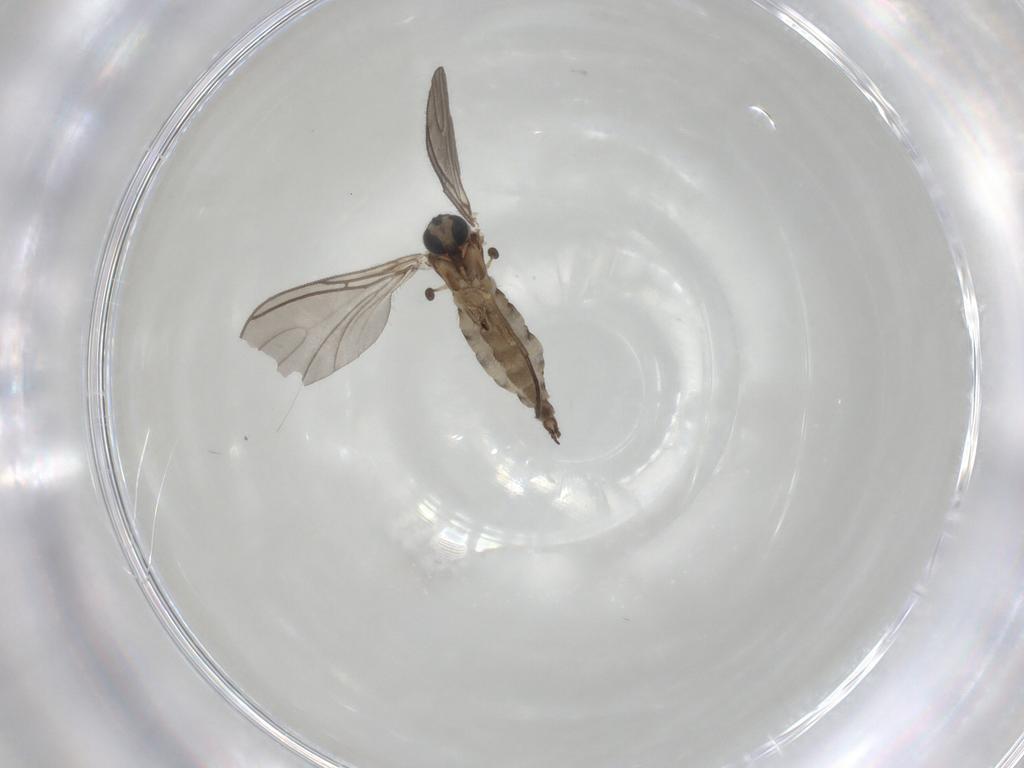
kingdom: Animalia
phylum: Arthropoda
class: Insecta
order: Diptera
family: Sciaridae
